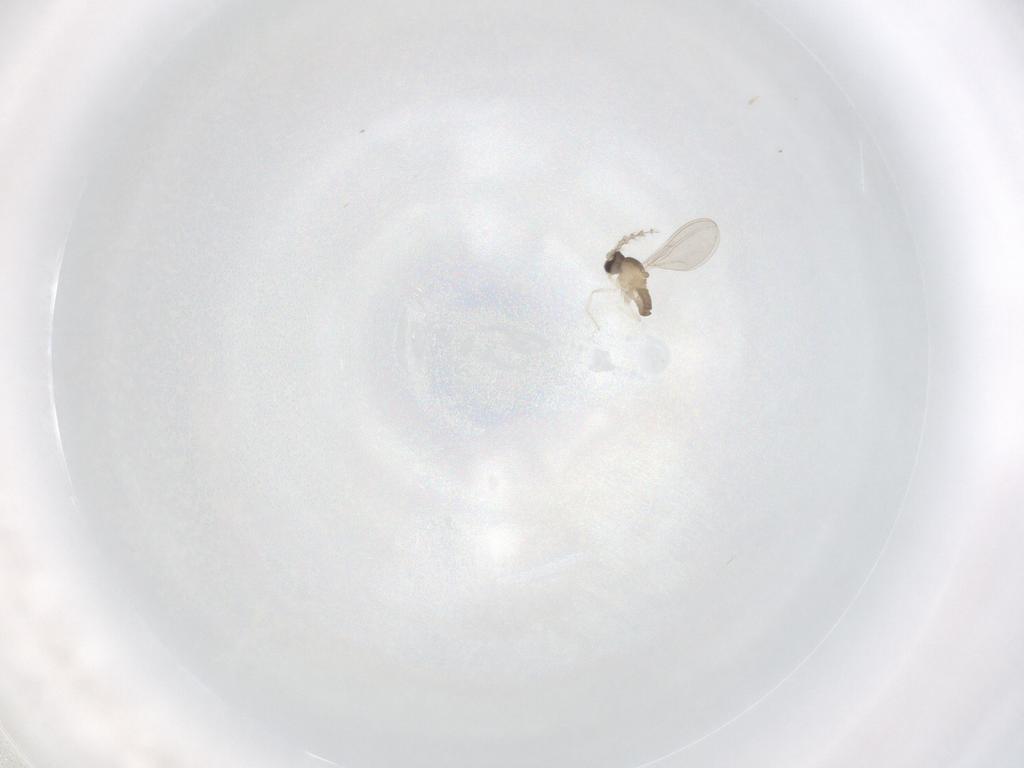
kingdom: Animalia
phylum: Arthropoda
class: Insecta
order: Diptera
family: Cecidomyiidae
